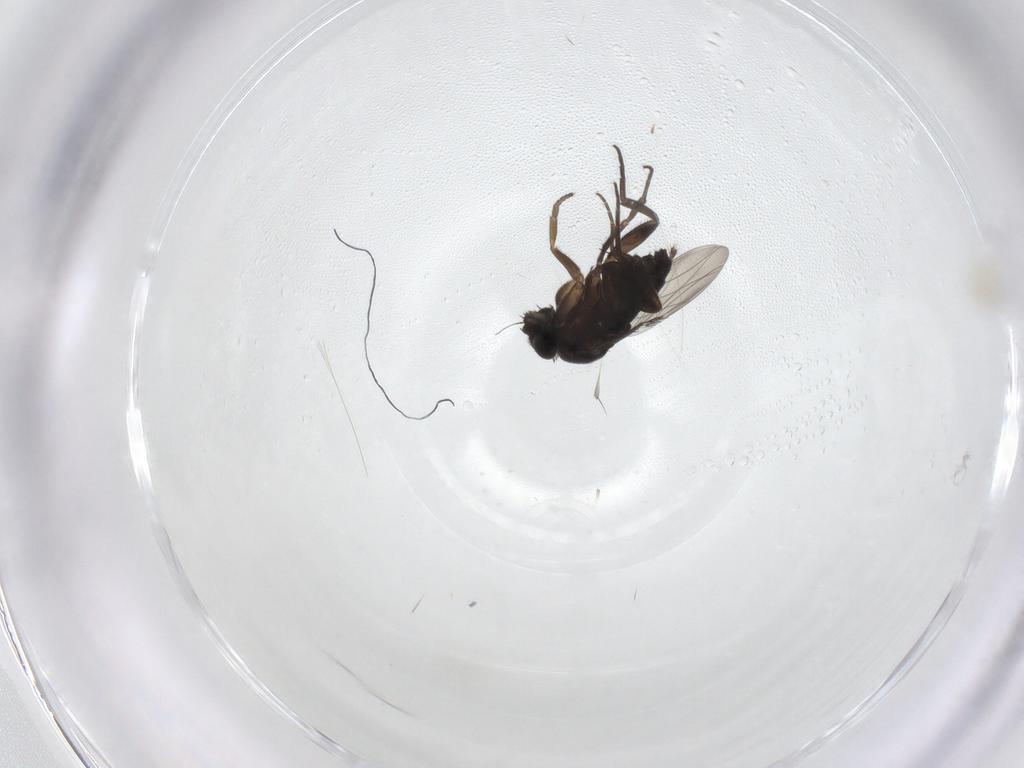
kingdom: Animalia
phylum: Arthropoda
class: Insecta
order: Diptera
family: Phoridae
